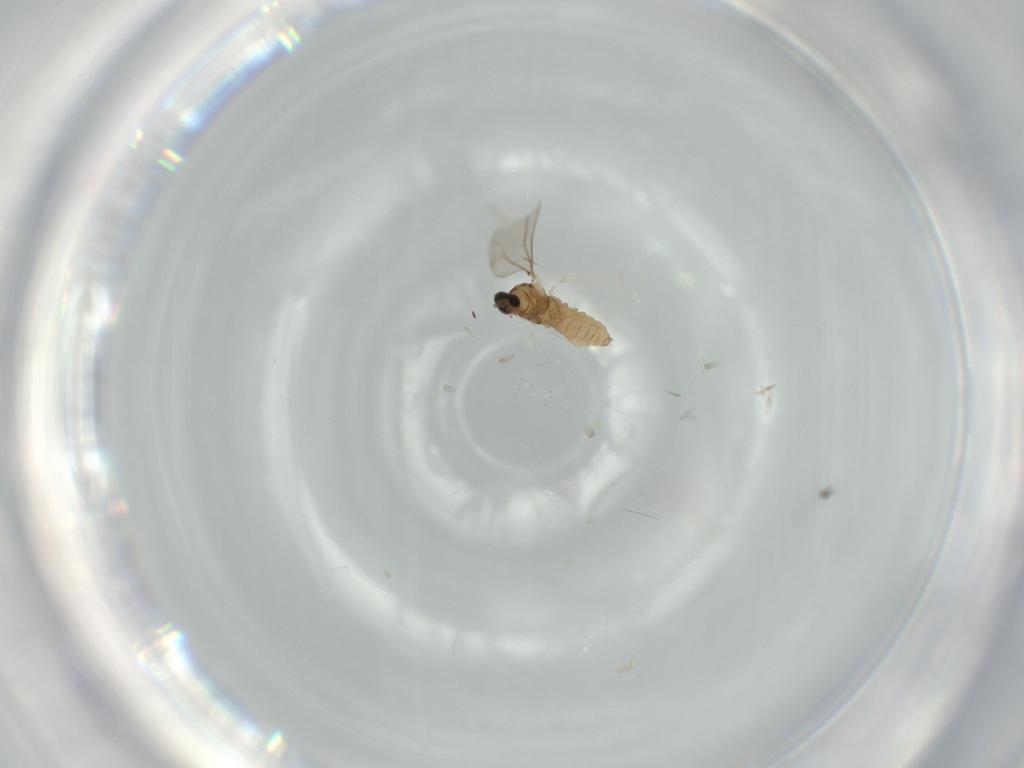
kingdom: Animalia
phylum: Arthropoda
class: Insecta
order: Diptera
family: Cecidomyiidae
